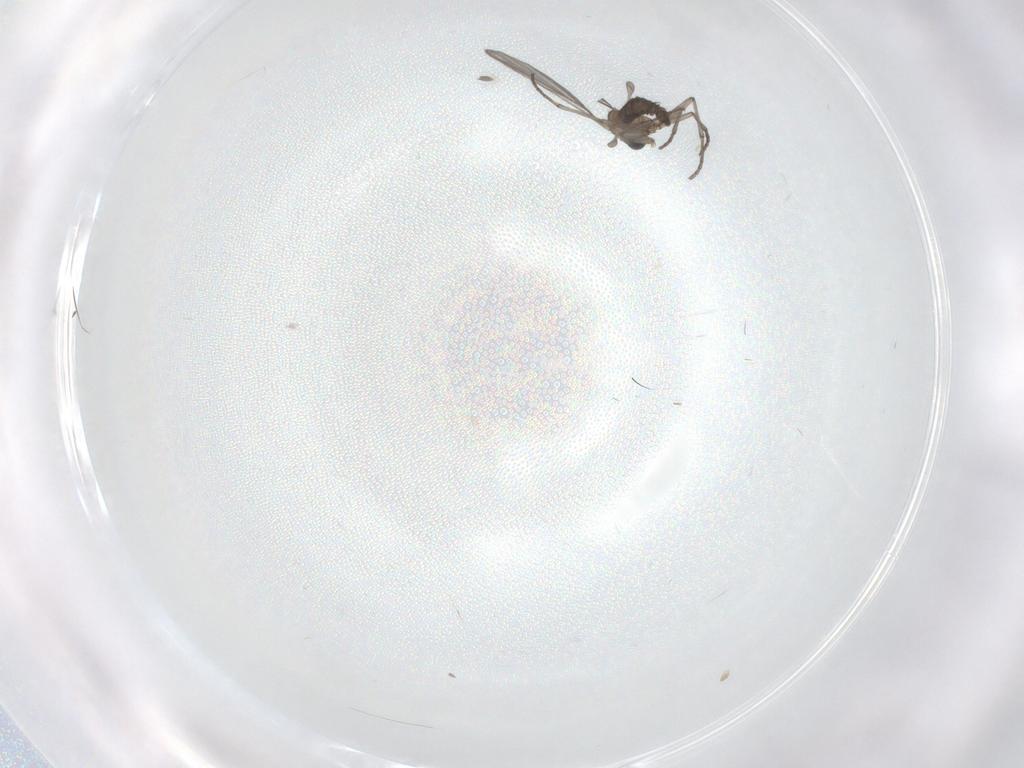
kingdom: Animalia
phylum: Arthropoda
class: Insecta
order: Diptera
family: Sciaridae
